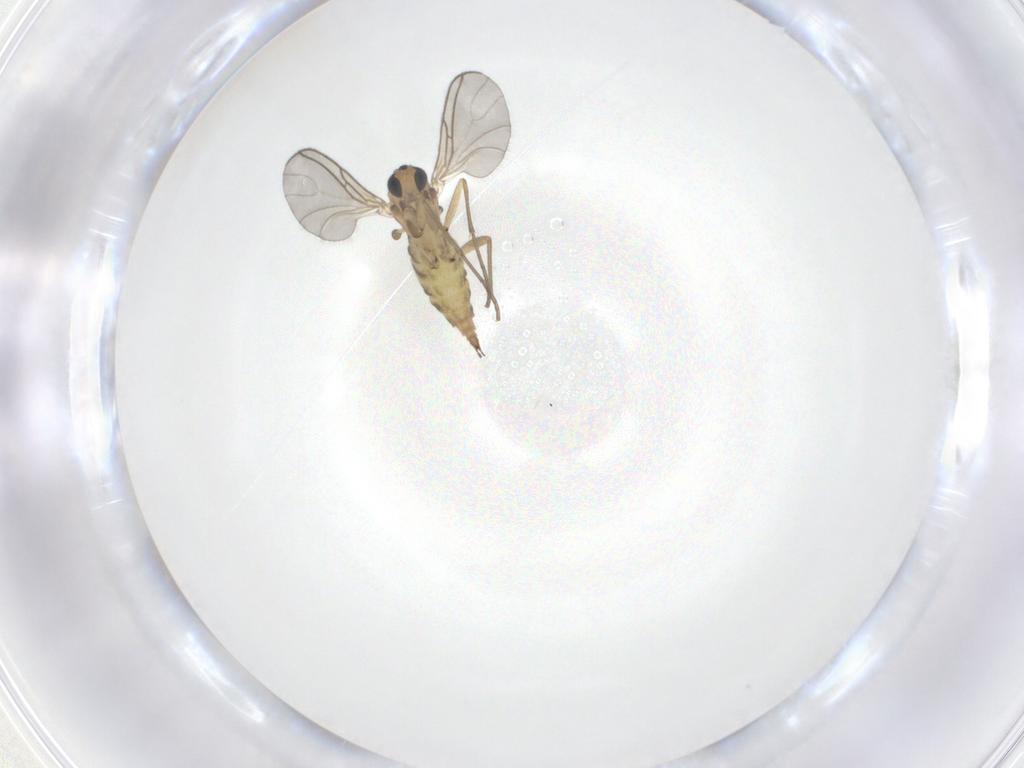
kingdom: Animalia
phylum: Arthropoda
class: Insecta
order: Diptera
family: Sciaridae
